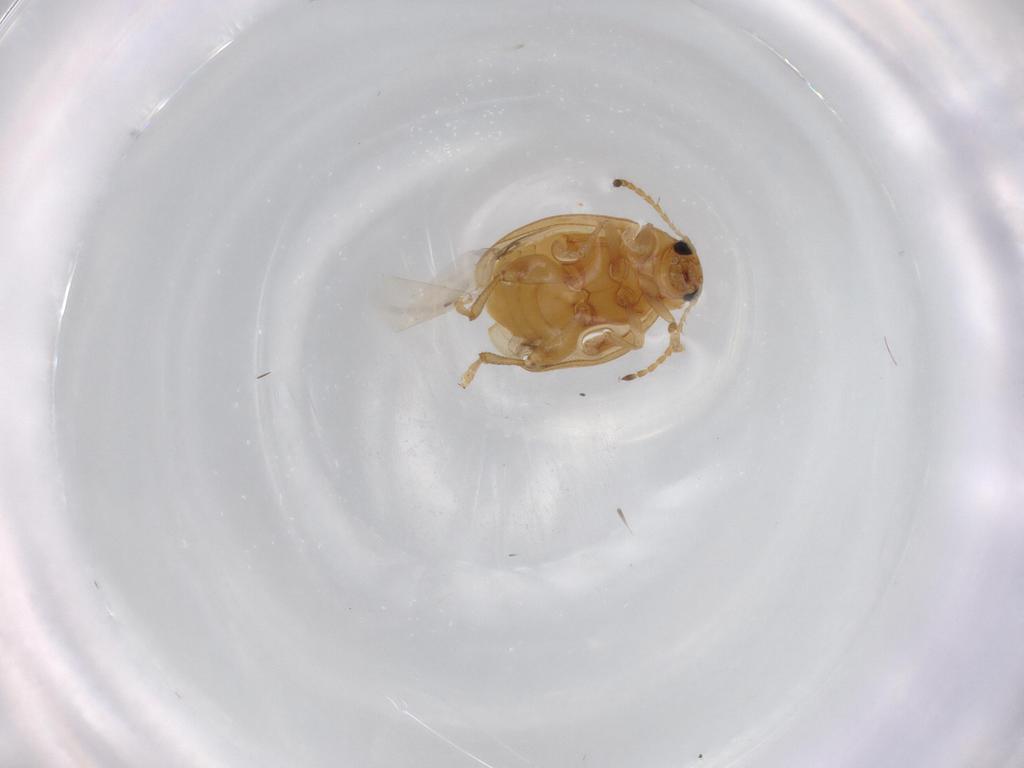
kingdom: Animalia
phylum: Arthropoda
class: Insecta
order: Coleoptera
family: Chrysomelidae
